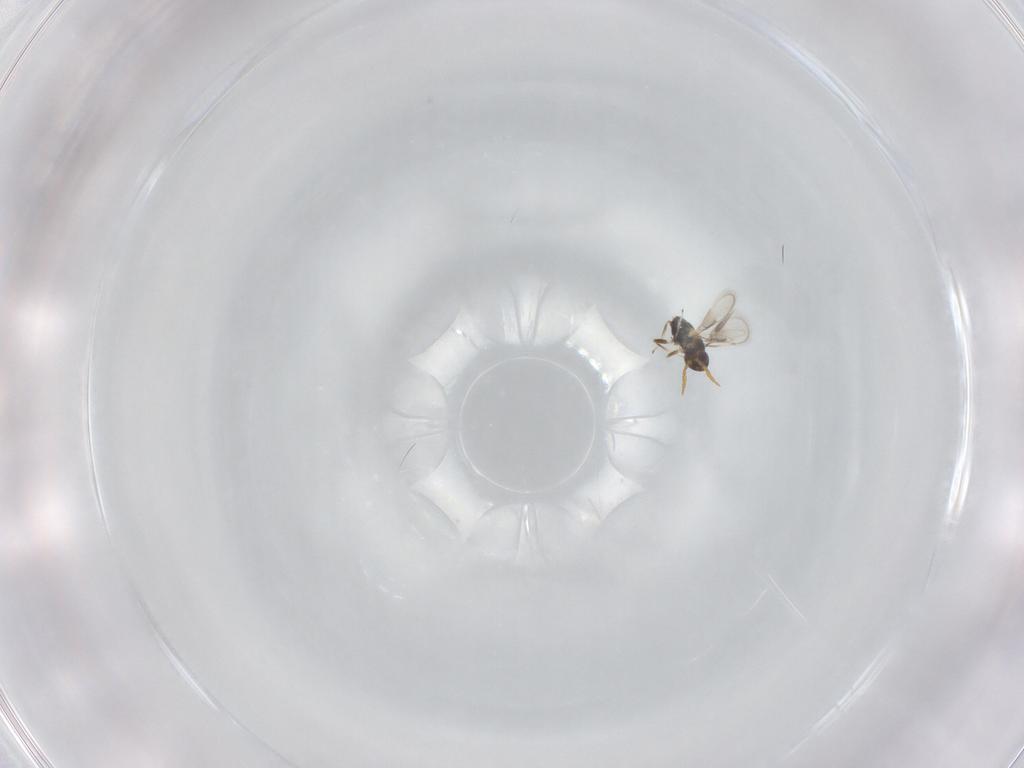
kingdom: Animalia
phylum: Arthropoda
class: Insecta
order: Hymenoptera
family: Aphelinidae
